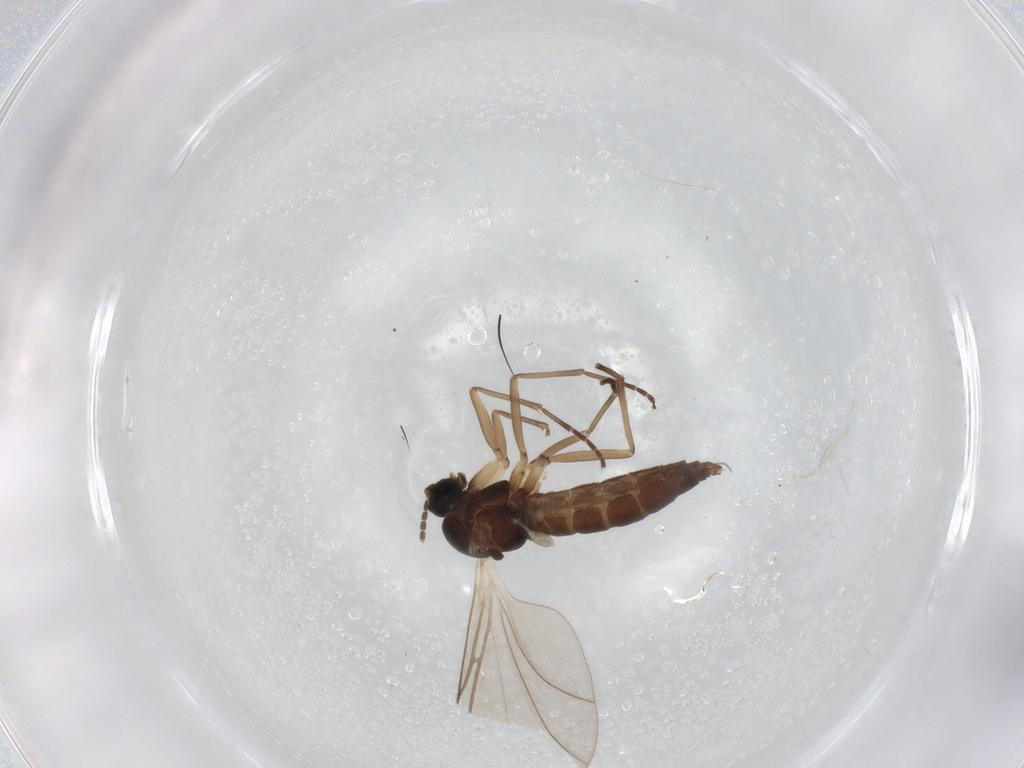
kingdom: Animalia
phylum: Arthropoda
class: Insecta
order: Diptera
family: Sciaridae
